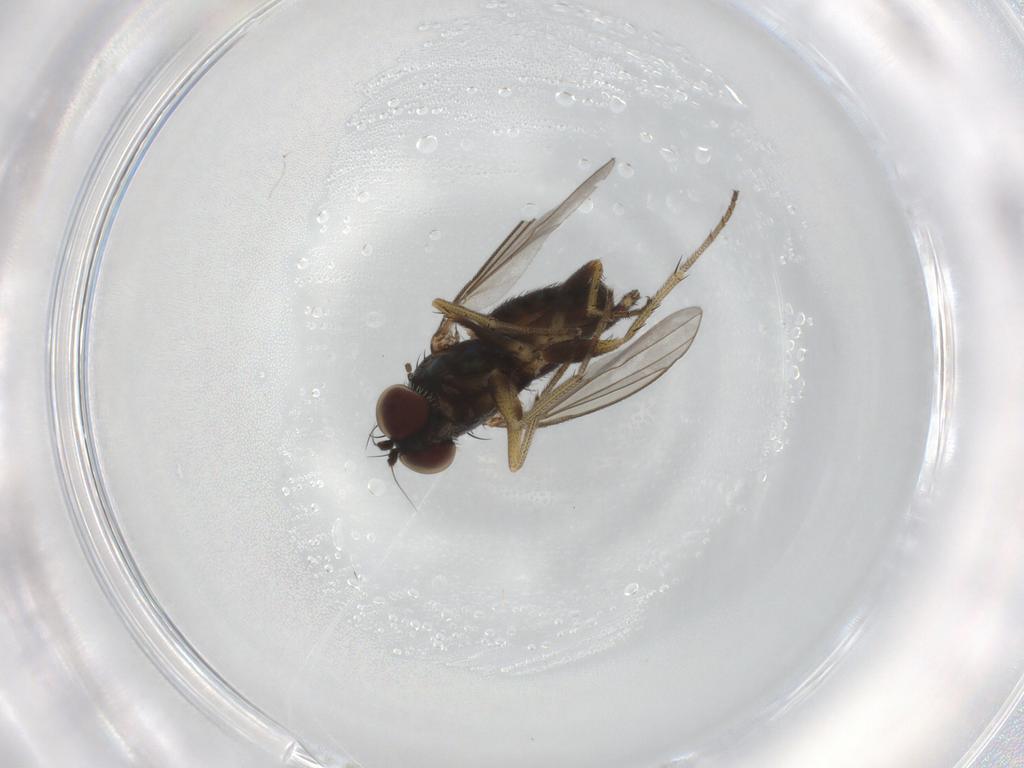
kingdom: Animalia
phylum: Arthropoda
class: Insecta
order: Diptera
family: Sciaridae
